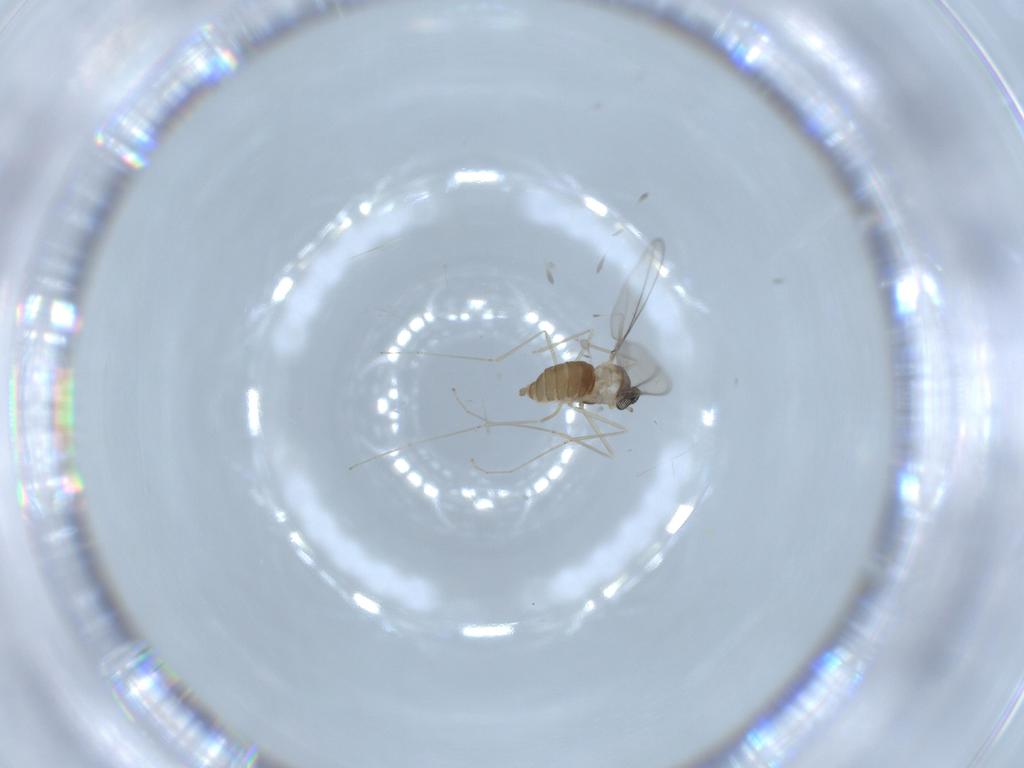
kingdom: Animalia
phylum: Arthropoda
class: Insecta
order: Diptera
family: Cecidomyiidae
